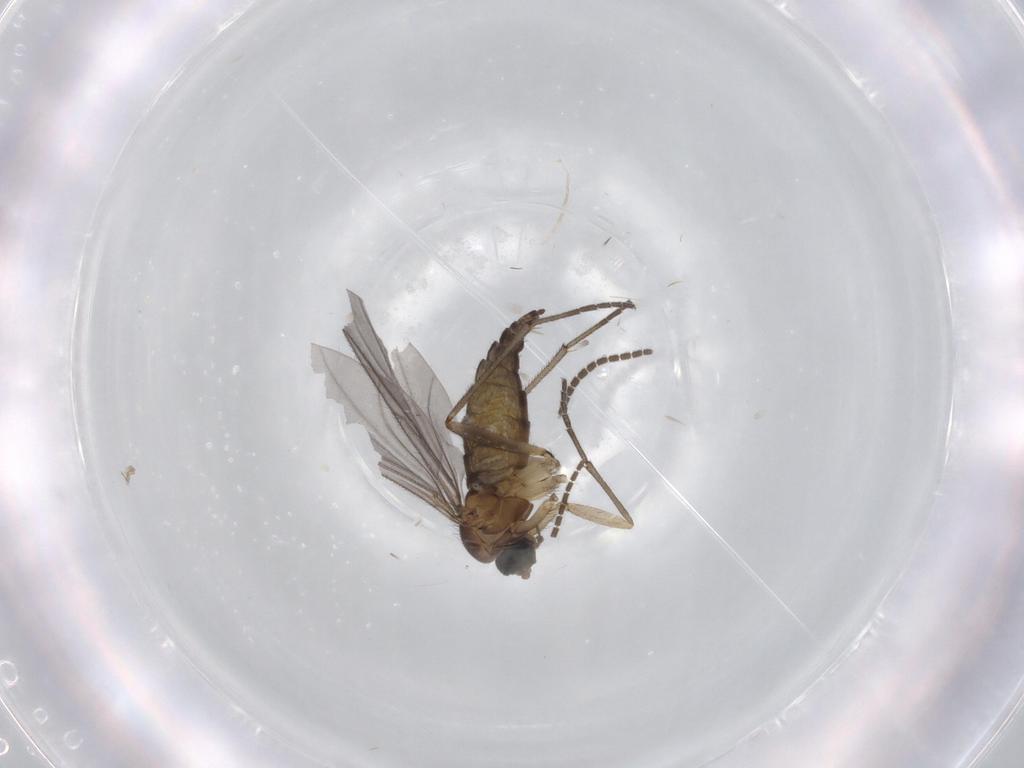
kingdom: Animalia
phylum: Arthropoda
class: Insecta
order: Diptera
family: Sciaridae
